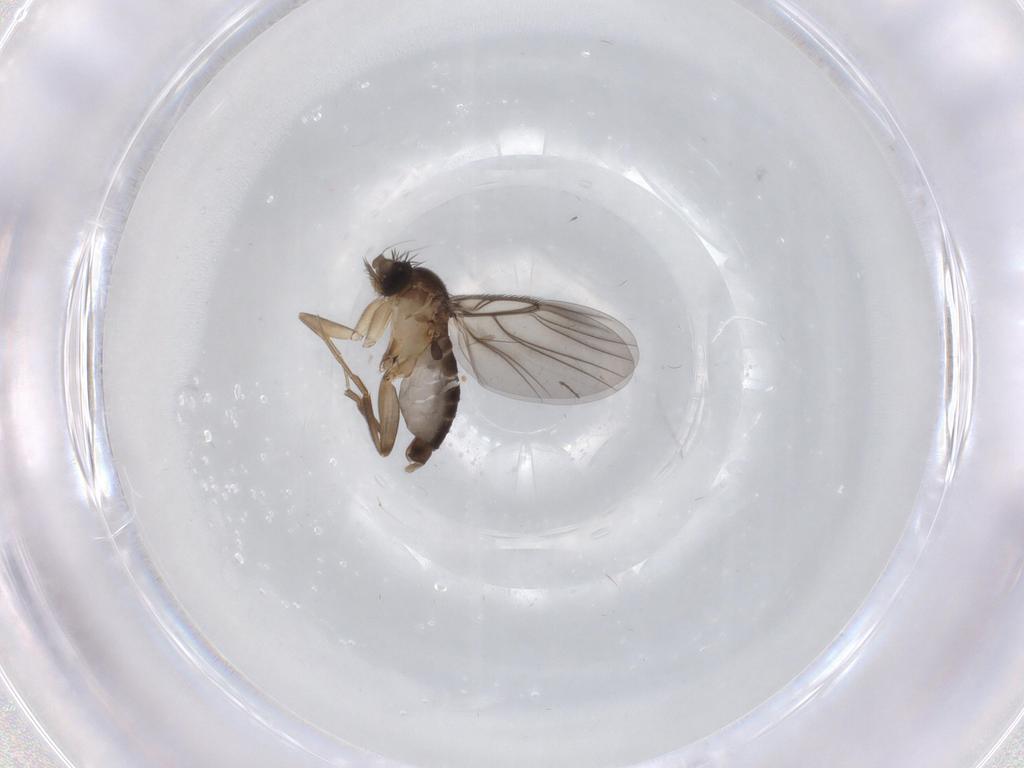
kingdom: Animalia
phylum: Arthropoda
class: Insecta
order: Diptera
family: Phoridae
